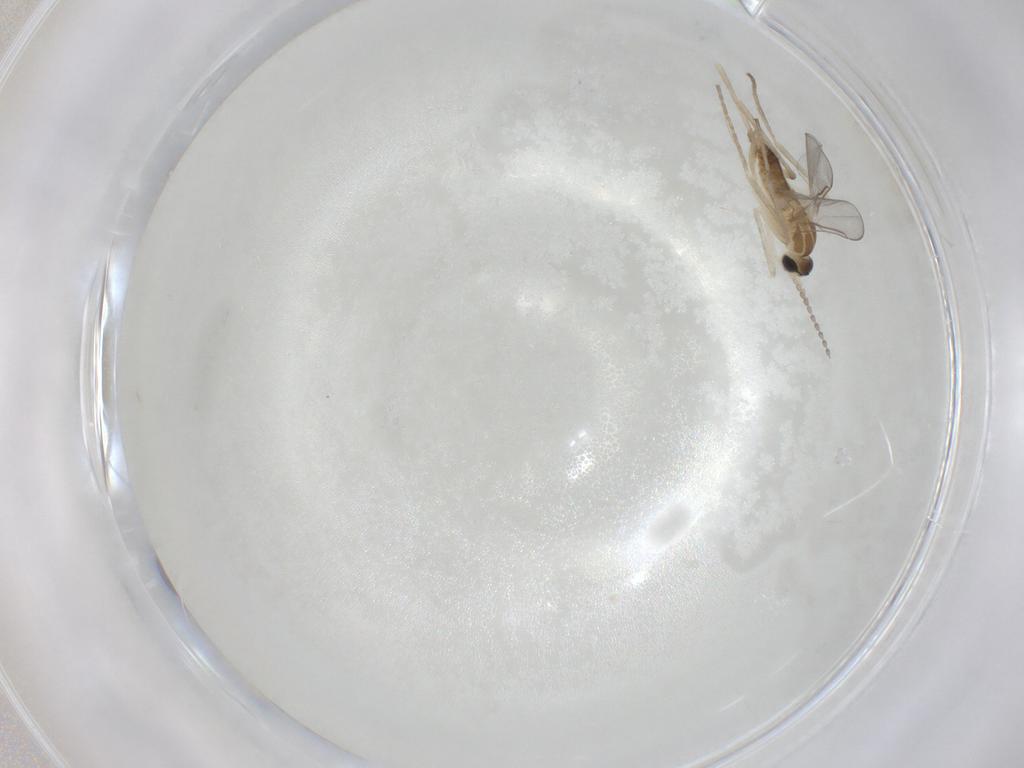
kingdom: Animalia
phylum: Arthropoda
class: Insecta
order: Diptera
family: Cecidomyiidae
